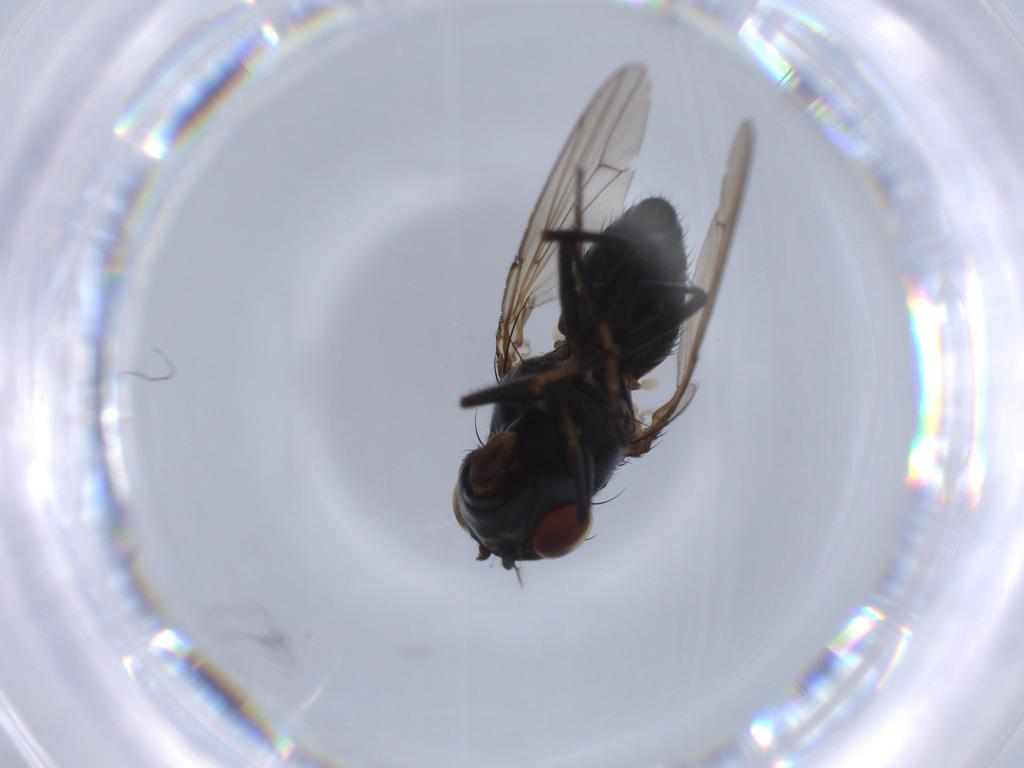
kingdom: Animalia
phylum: Arthropoda
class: Insecta
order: Diptera
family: Ephydridae
